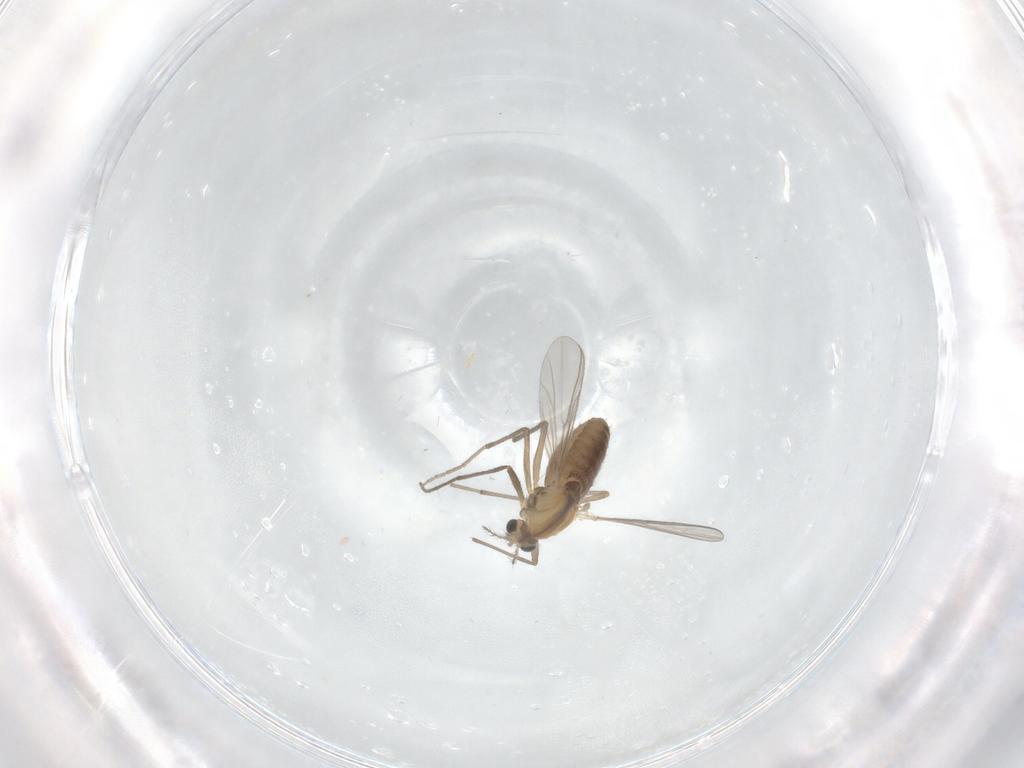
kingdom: Animalia
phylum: Arthropoda
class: Insecta
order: Diptera
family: Chironomidae
